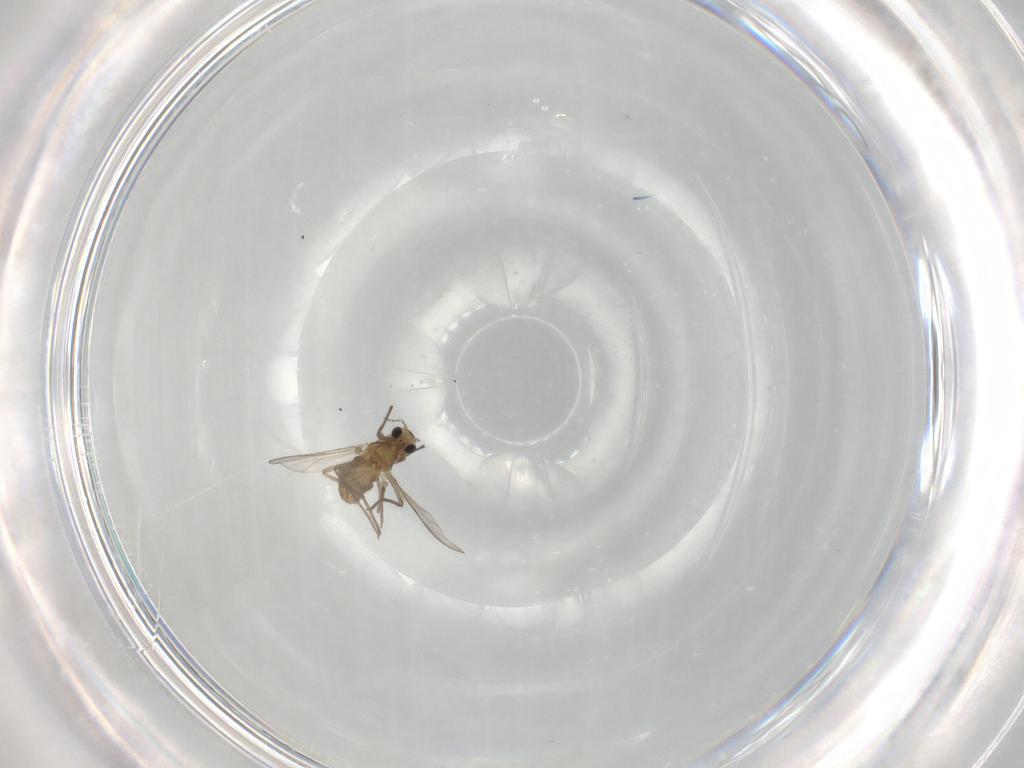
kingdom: Animalia
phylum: Arthropoda
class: Insecta
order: Diptera
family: Chironomidae
